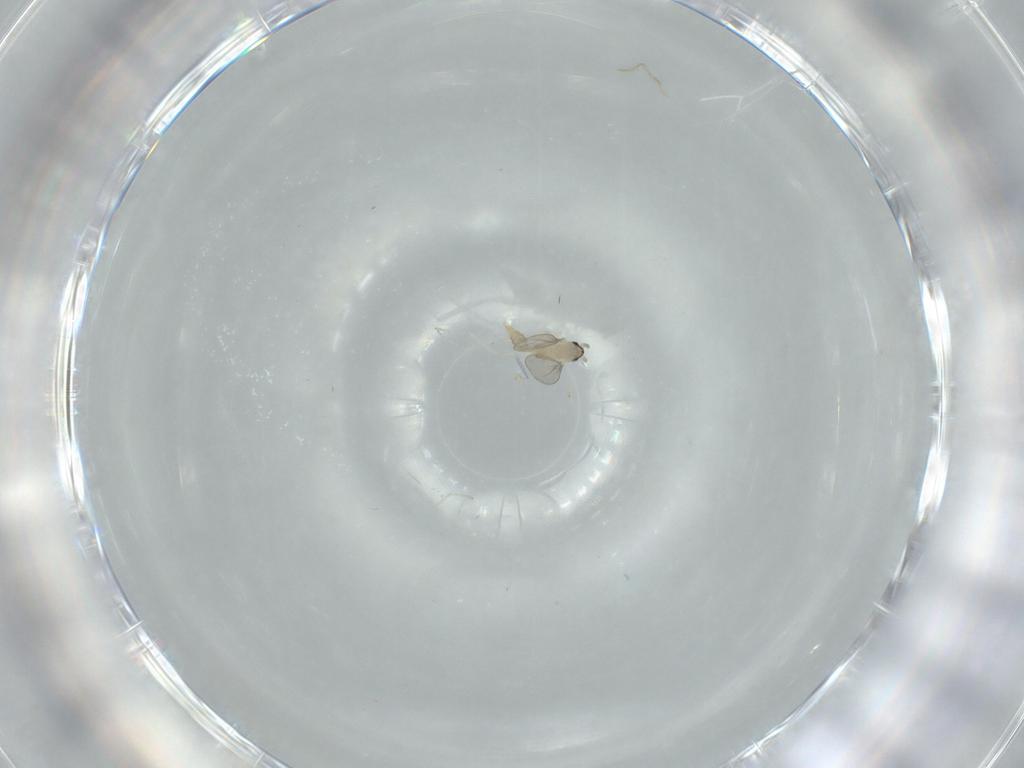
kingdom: Animalia
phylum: Arthropoda
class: Insecta
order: Diptera
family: Cecidomyiidae
